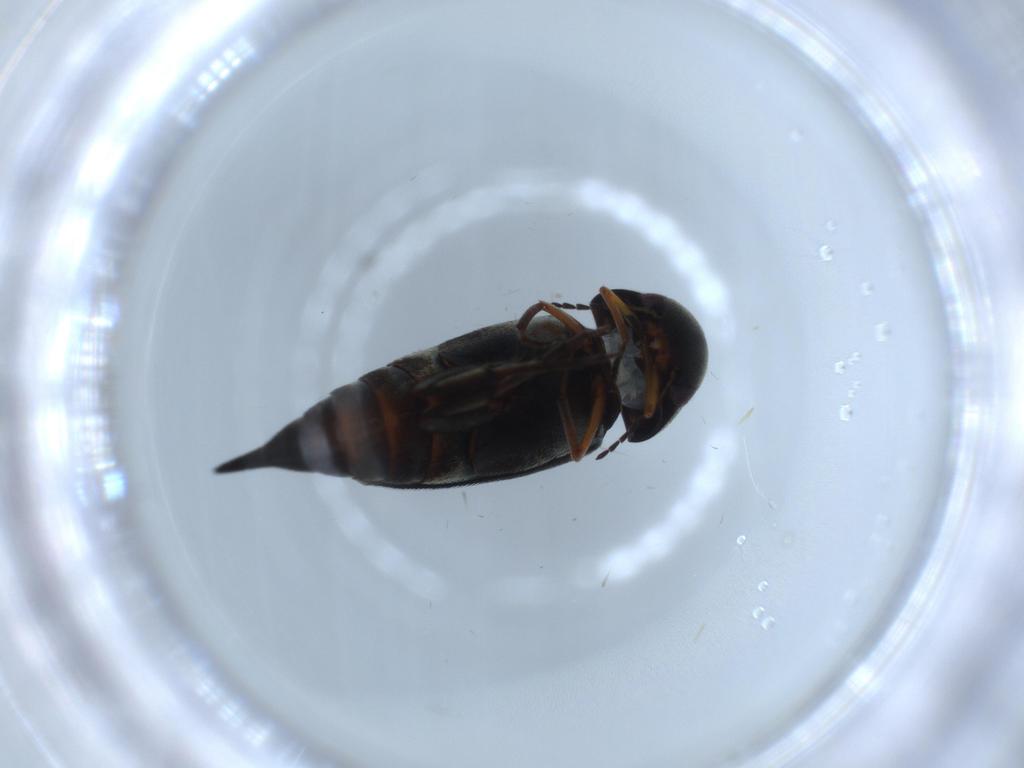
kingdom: Animalia
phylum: Arthropoda
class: Insecta
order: Coleoptera
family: Mordellidae
